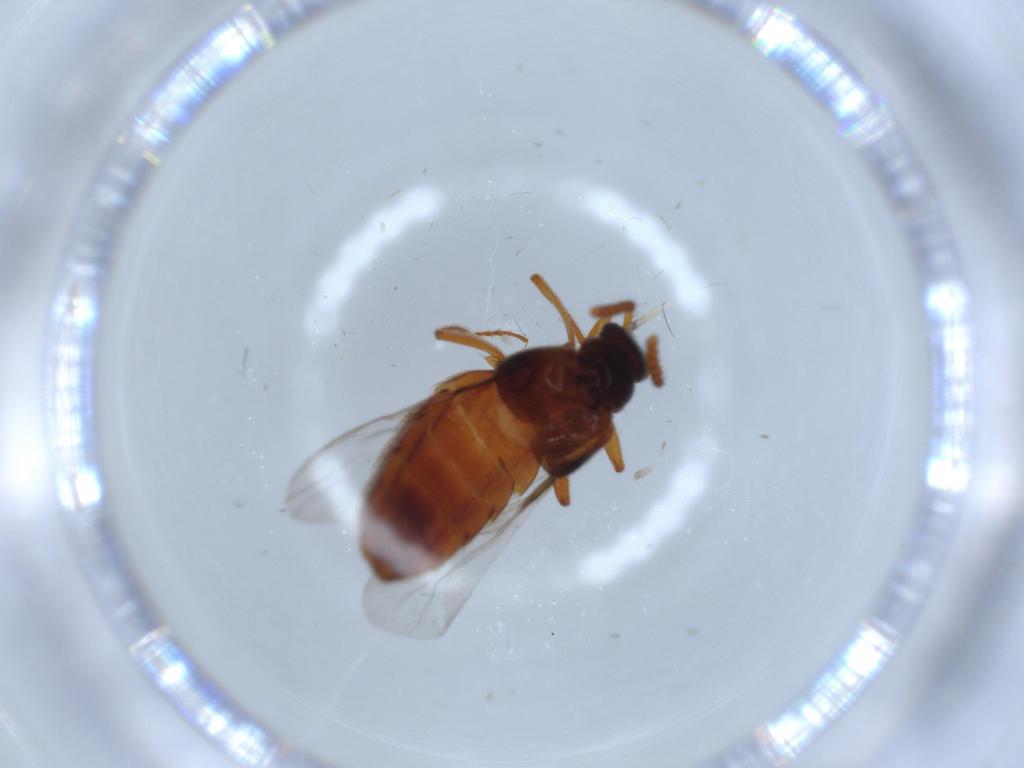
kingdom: Animalia
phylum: Arthropoda
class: Insecta
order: Coleoptera
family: Staphylinidae
